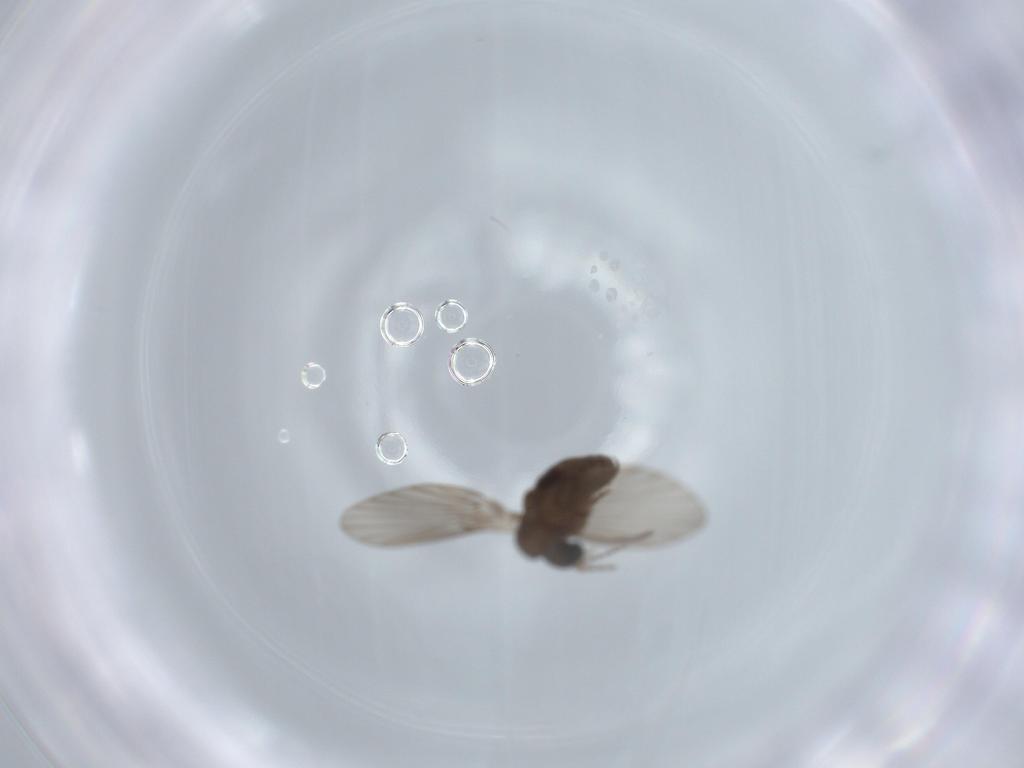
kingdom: Animalia
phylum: Arthropoda
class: Insecta
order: Diptera
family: Psychodidae
